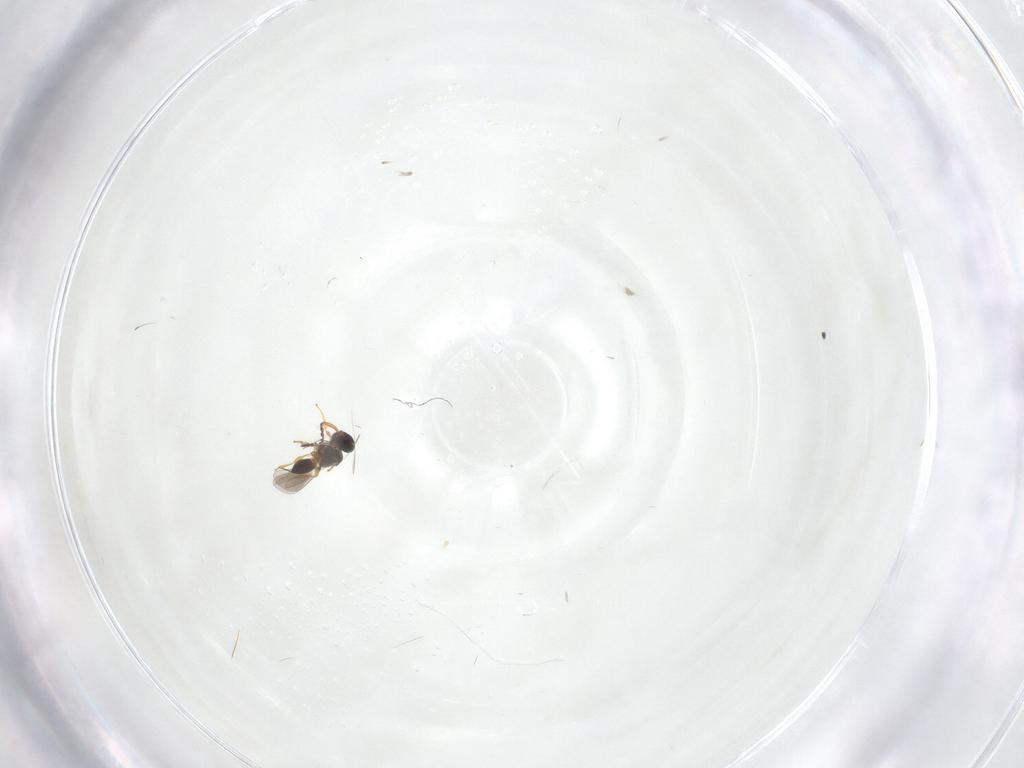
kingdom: Animalia
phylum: Arthropoda
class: Insecta
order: Hymenoptera
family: Platygastridae
